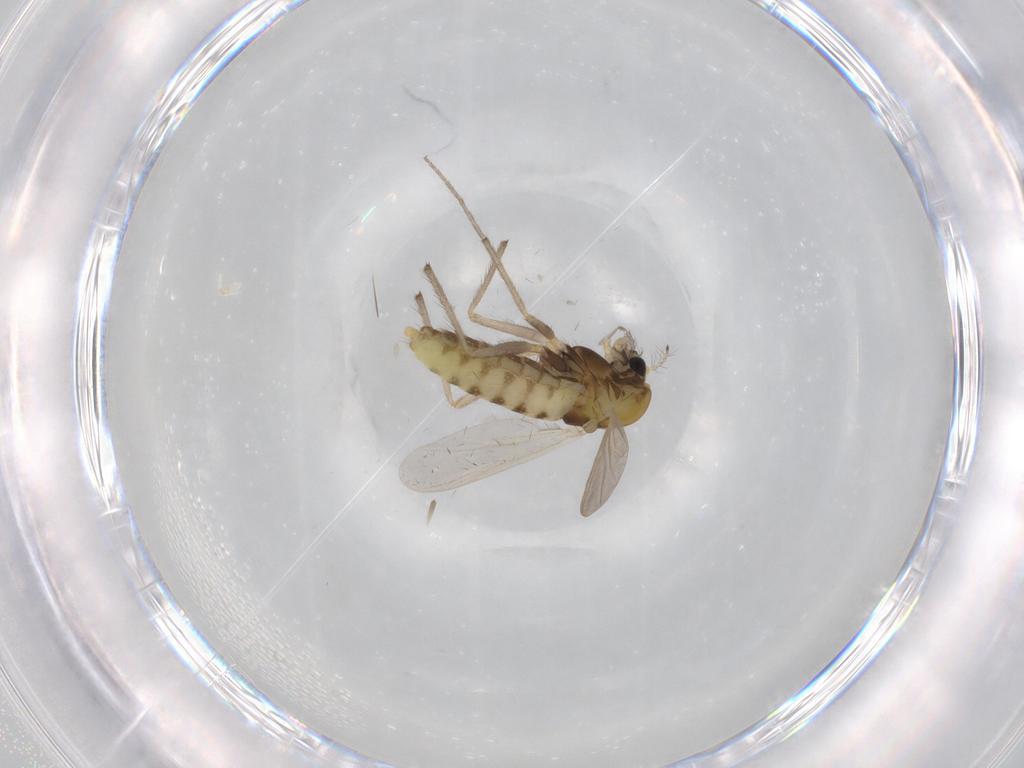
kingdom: Animalia
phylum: Arthropoda
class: Insecta
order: Diptera
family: Chironomidae
